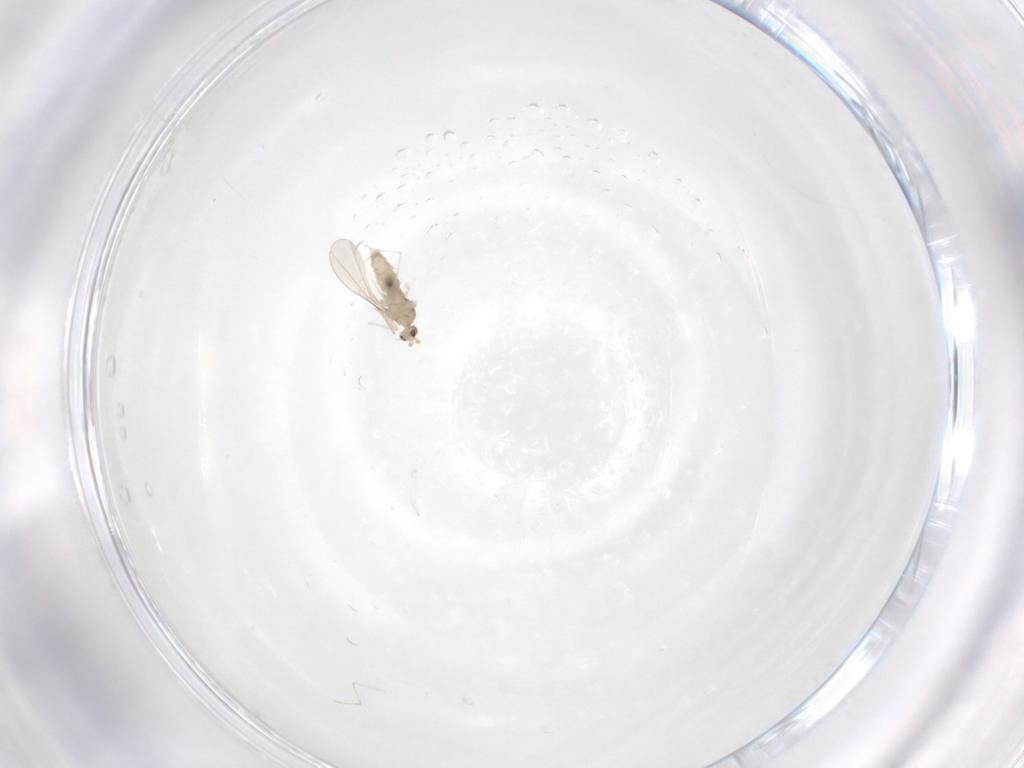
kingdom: Animalia
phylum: Arthropoda
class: Insecta
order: Diptera
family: Cecidomyiidae
